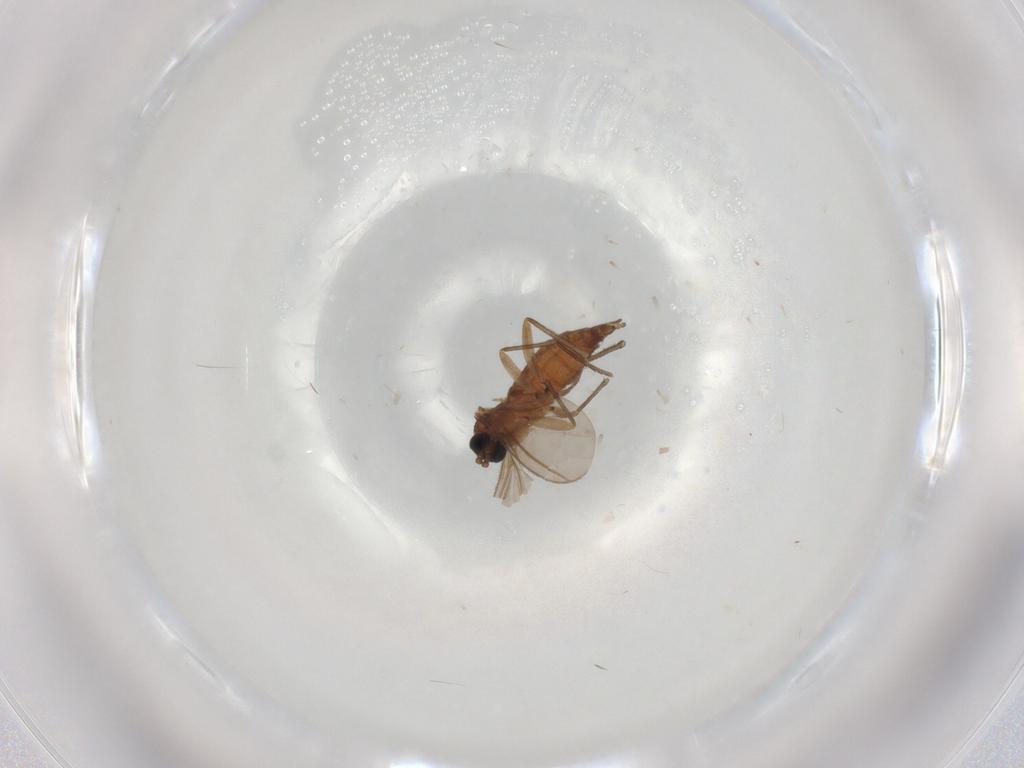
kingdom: Animalia
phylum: Arthropoda
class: Insecta
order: Diptera
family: Sciaridae
